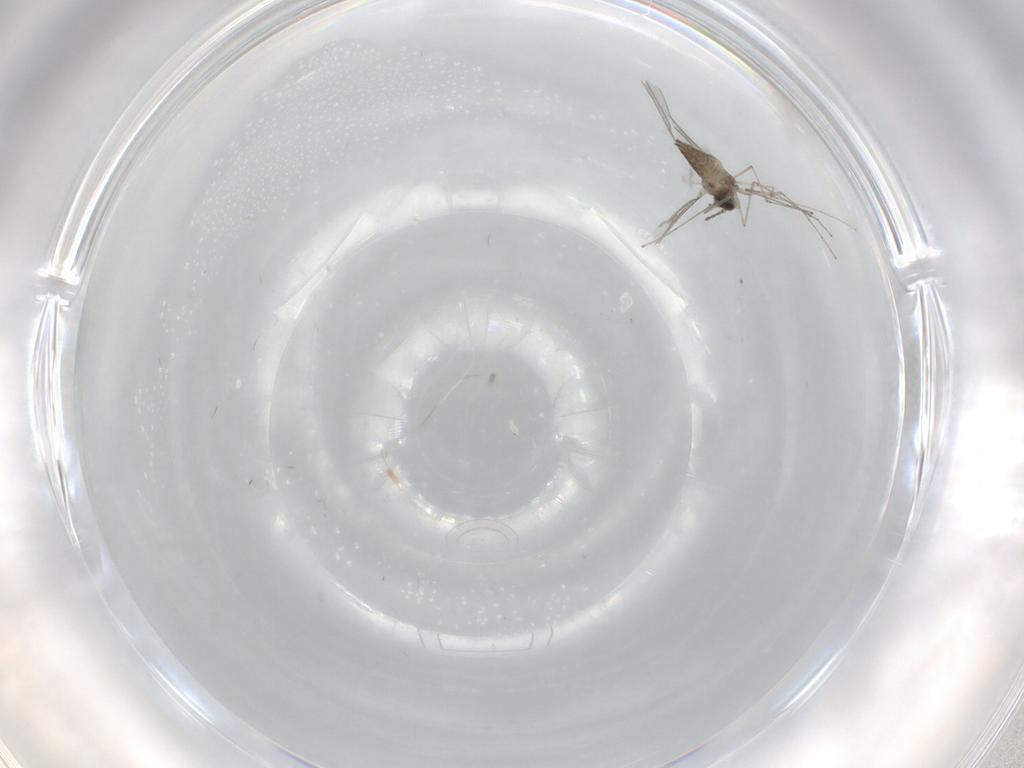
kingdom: Animalia
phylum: Arthropoda
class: Insecta
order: Diptera
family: Cecidomyiidae
